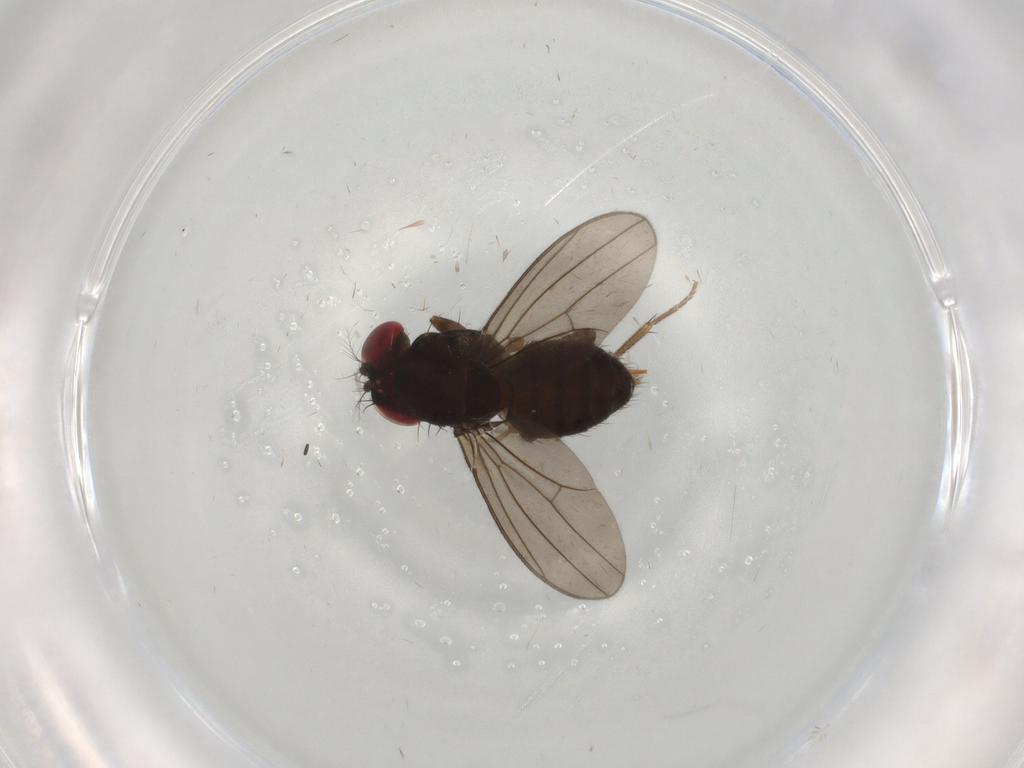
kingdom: Animalia
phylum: Arthropoda
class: Insecta
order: Diptera
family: Drosophilidae
